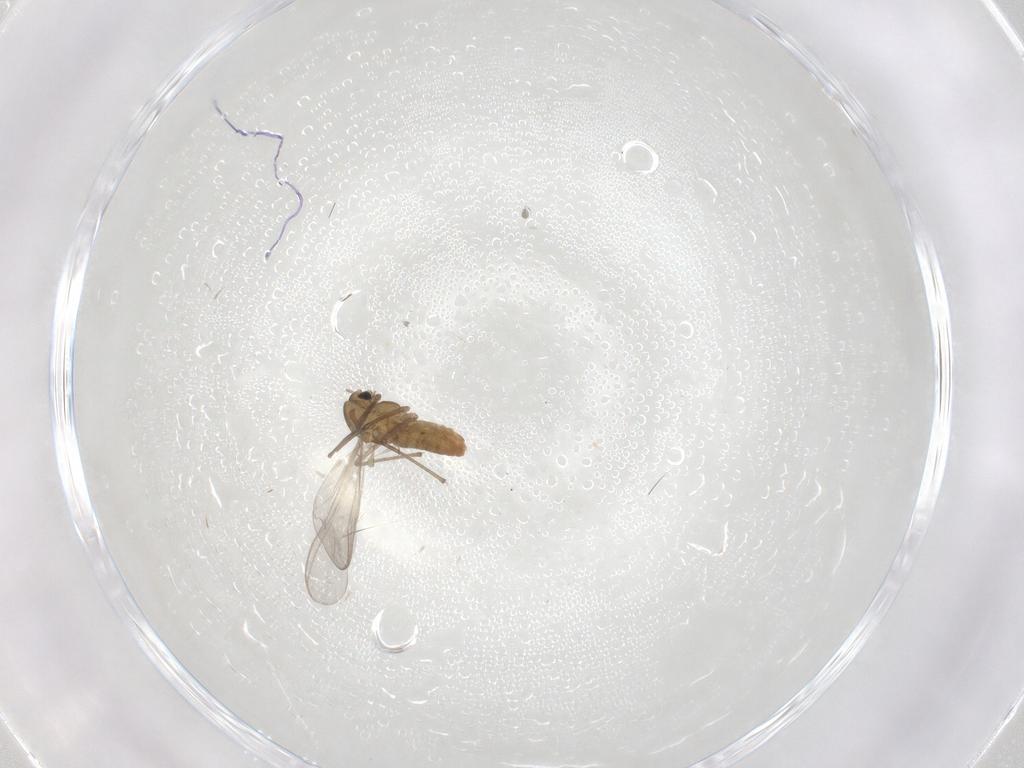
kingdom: Animalia
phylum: Arthropoda
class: Insecta
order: Diptera
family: Chironomidae
